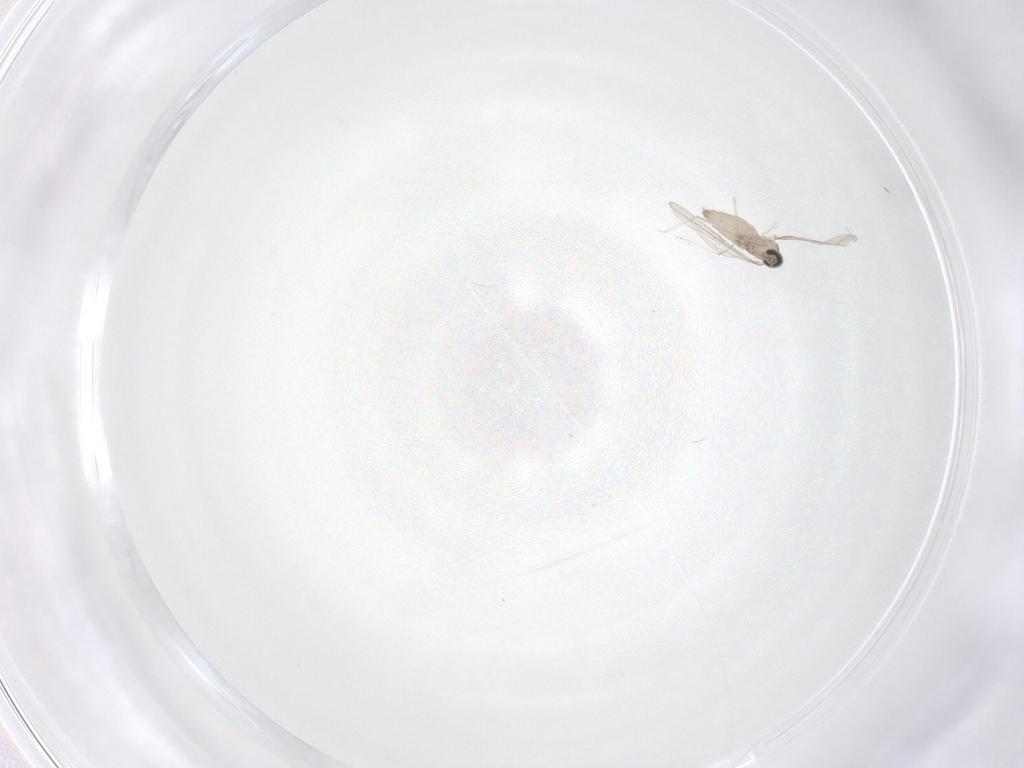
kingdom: Animalia
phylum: Arthropoda
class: Insecta
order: Diptera
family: Cecidomyiidae
